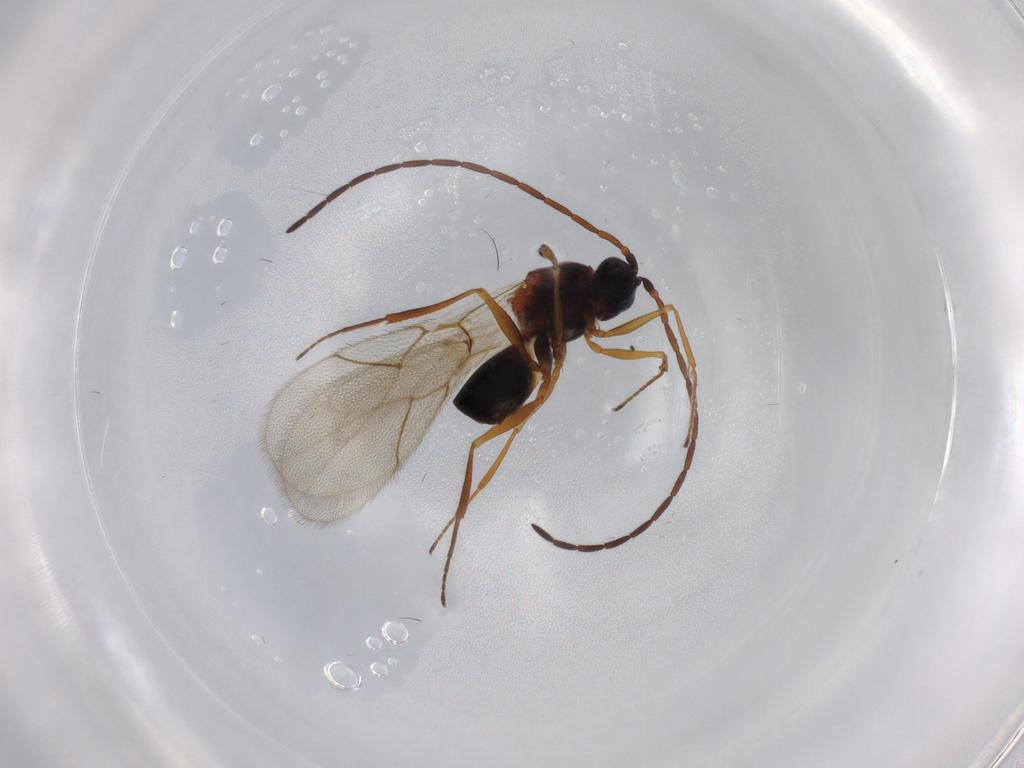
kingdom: Animalia
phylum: Arthropoda
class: Insecta
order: Hymenoptera
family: Figitidae
